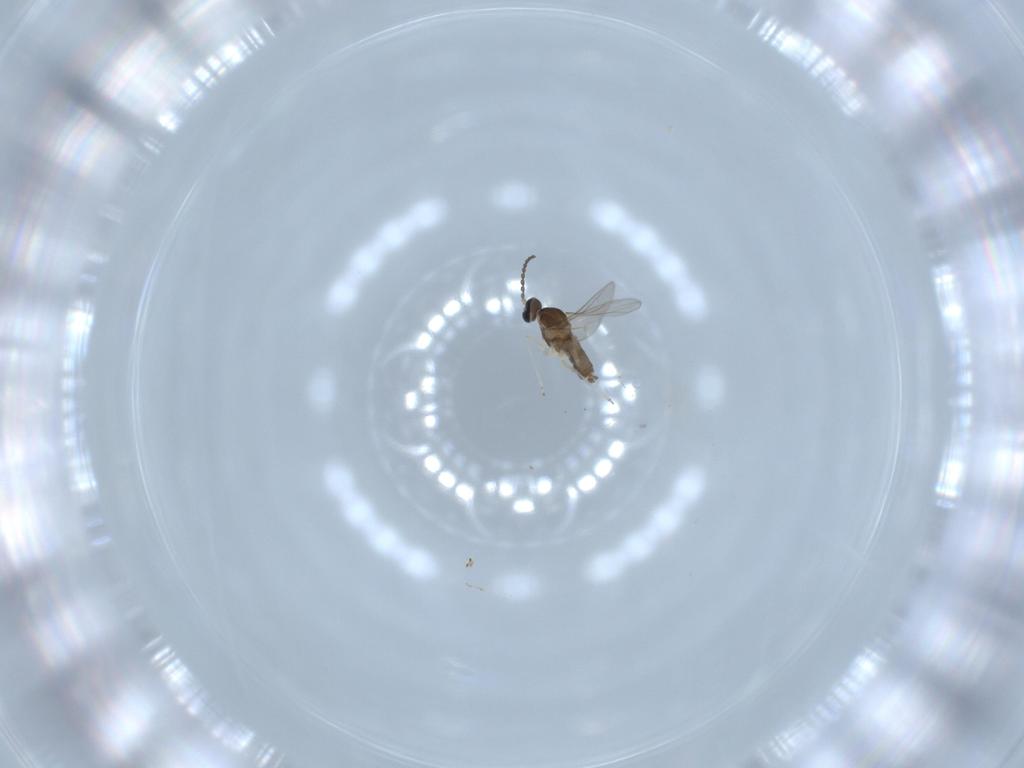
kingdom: Animalia
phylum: Arthropoda
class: Insecta
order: Diptera
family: Cecidomyiidae
